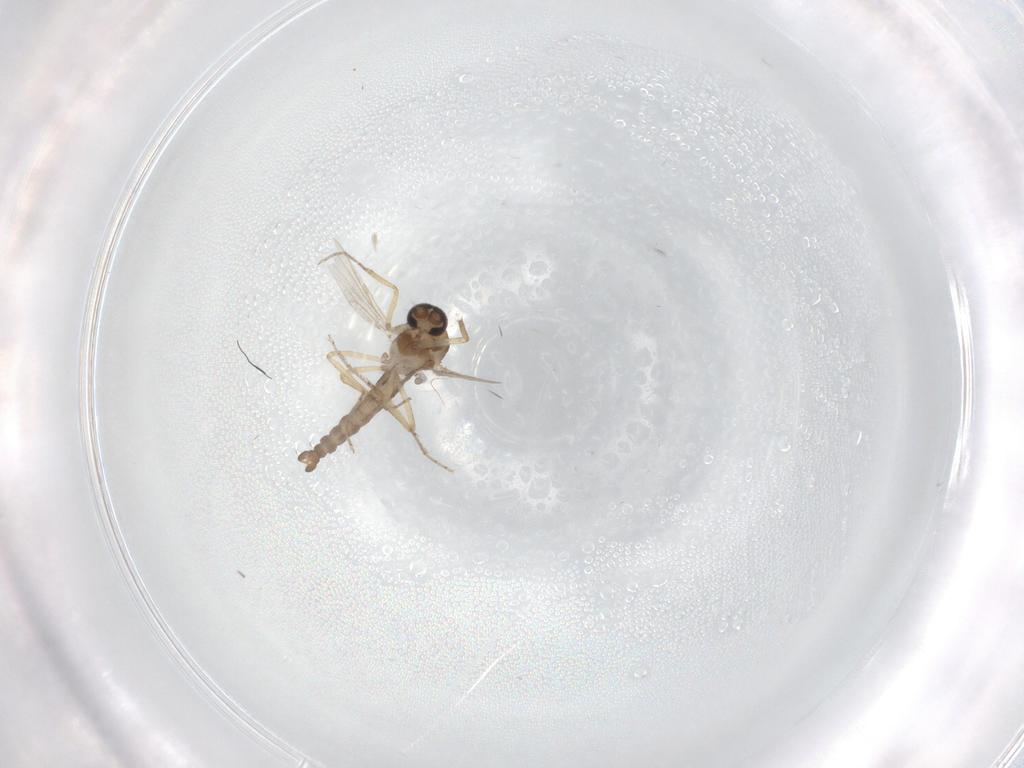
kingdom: Animalia
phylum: Arthropoda
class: Insecta
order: Diptera
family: Ceratopogonidae
